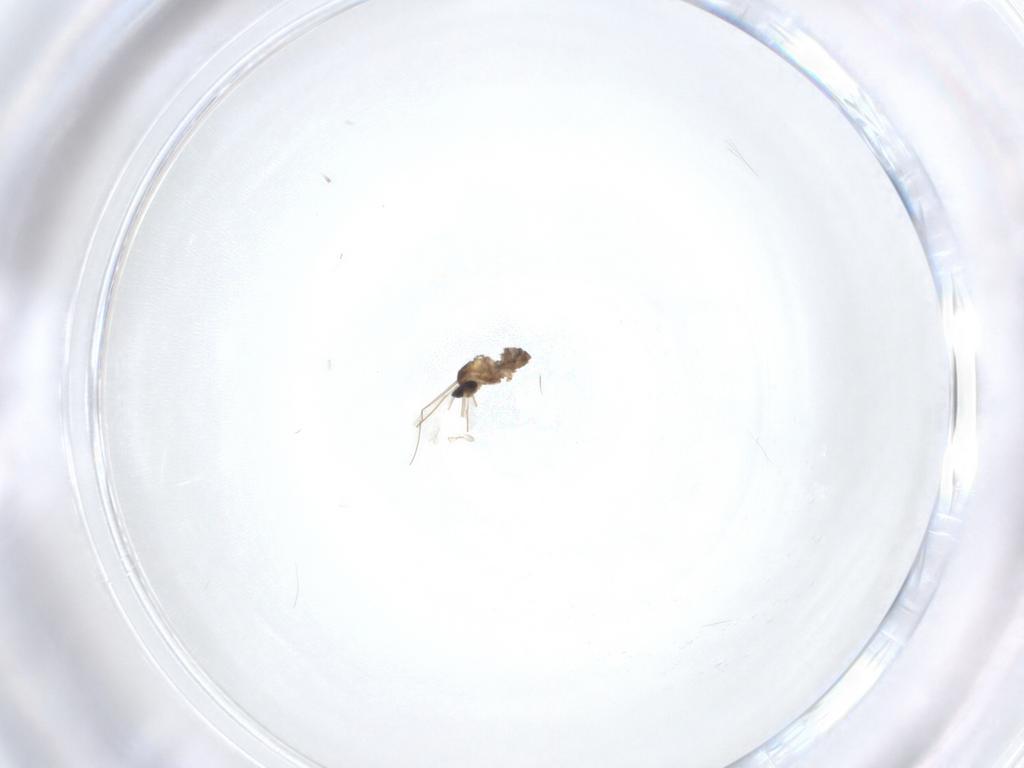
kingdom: Animalia
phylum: Arthropoda
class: Insecta
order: Diptera
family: Cecidomyiidae
